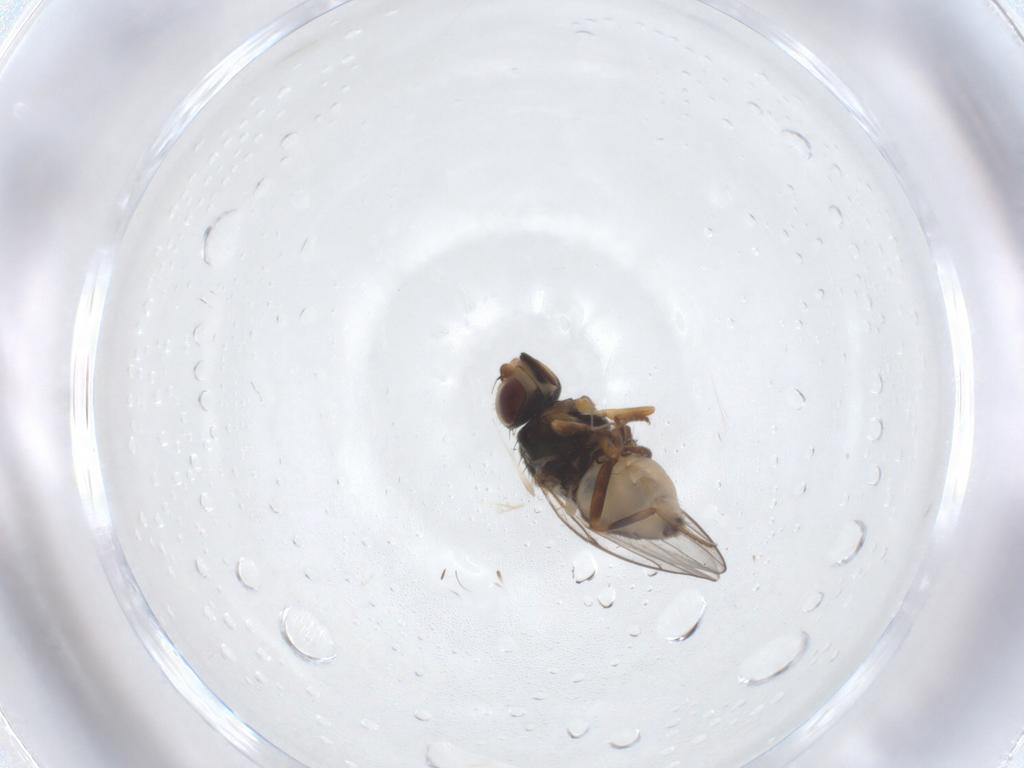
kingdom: Animalia
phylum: Arthropoda
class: Insecta
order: Diptera
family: Chloropidae
